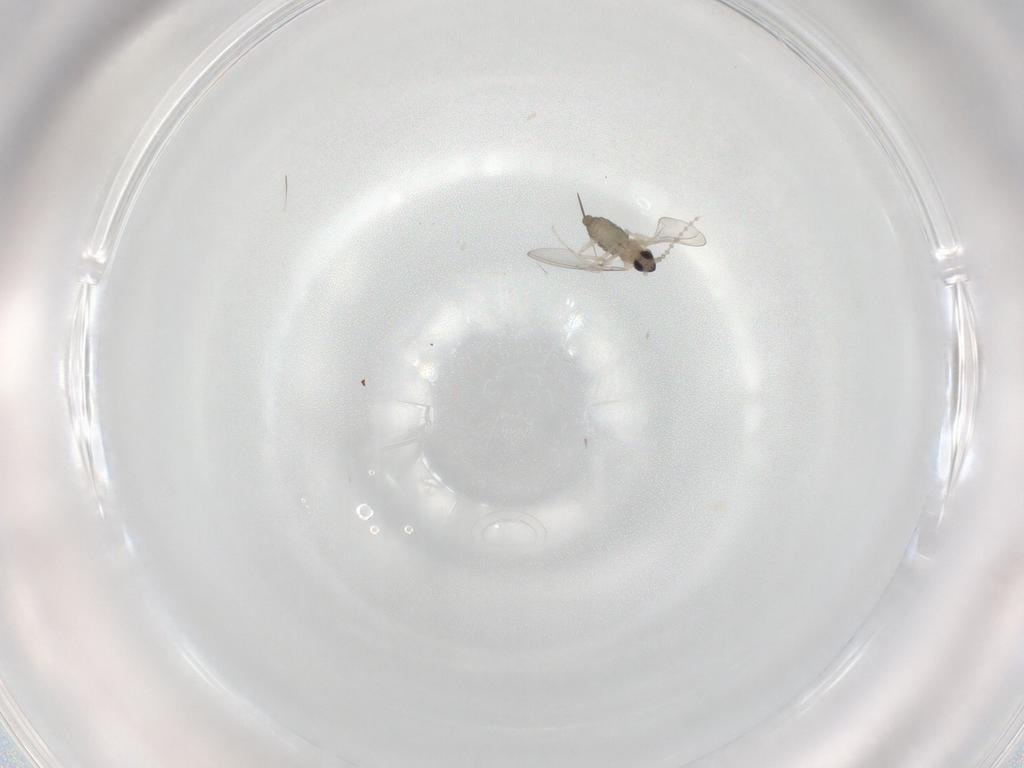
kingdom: Animalia
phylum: Arthropoda
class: Insecta
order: Diptera
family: Cecidomyiidae
